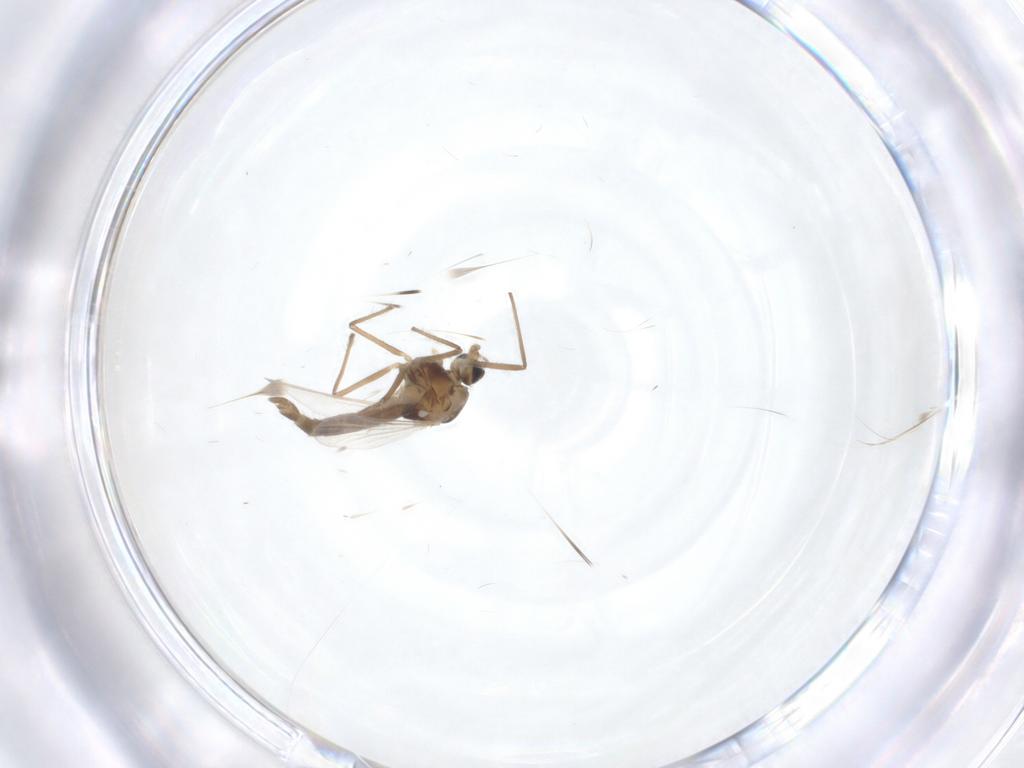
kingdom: Animalia
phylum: Arthropoda
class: Insecta
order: Diptera
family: Chironomidae
